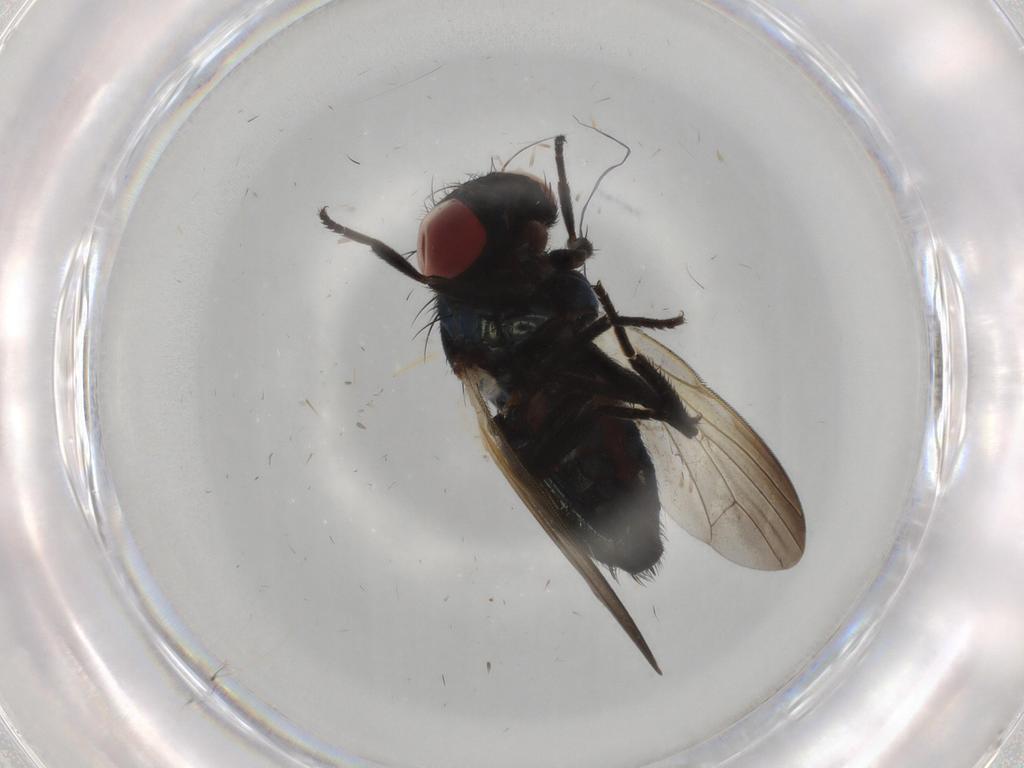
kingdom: Animalia
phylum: Arthropoda
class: Insecta
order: Diptera
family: Lonchaeidae
